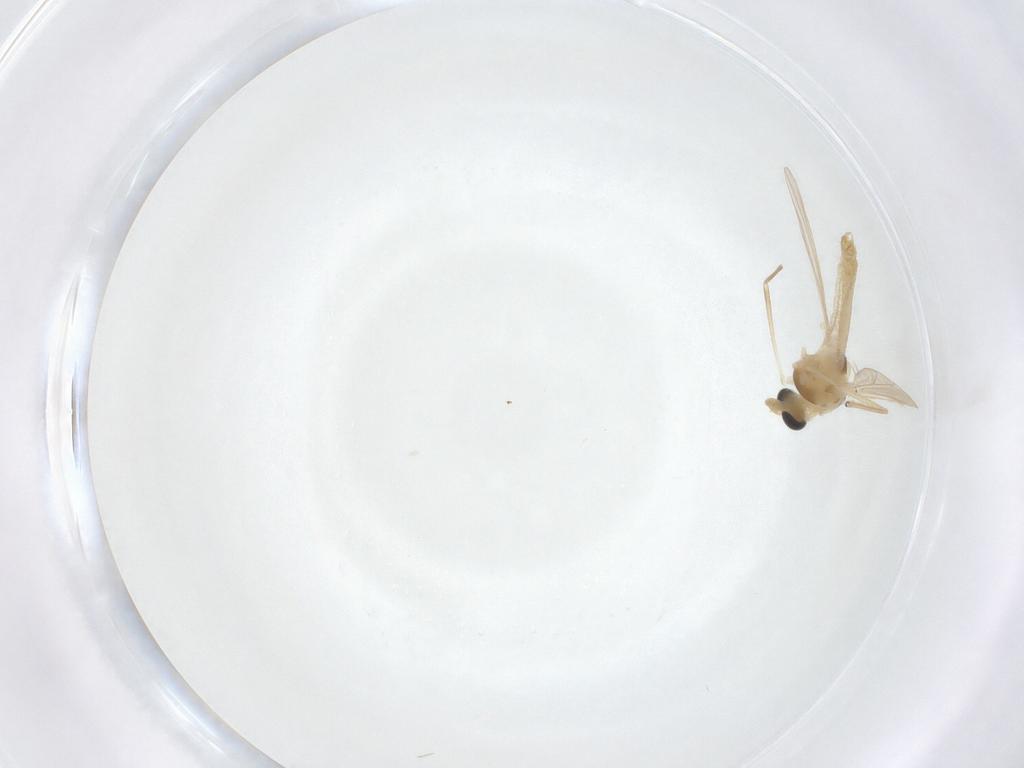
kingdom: Animalia
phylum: Arthropoda
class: Insecta
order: Diptera
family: Chironomidae
